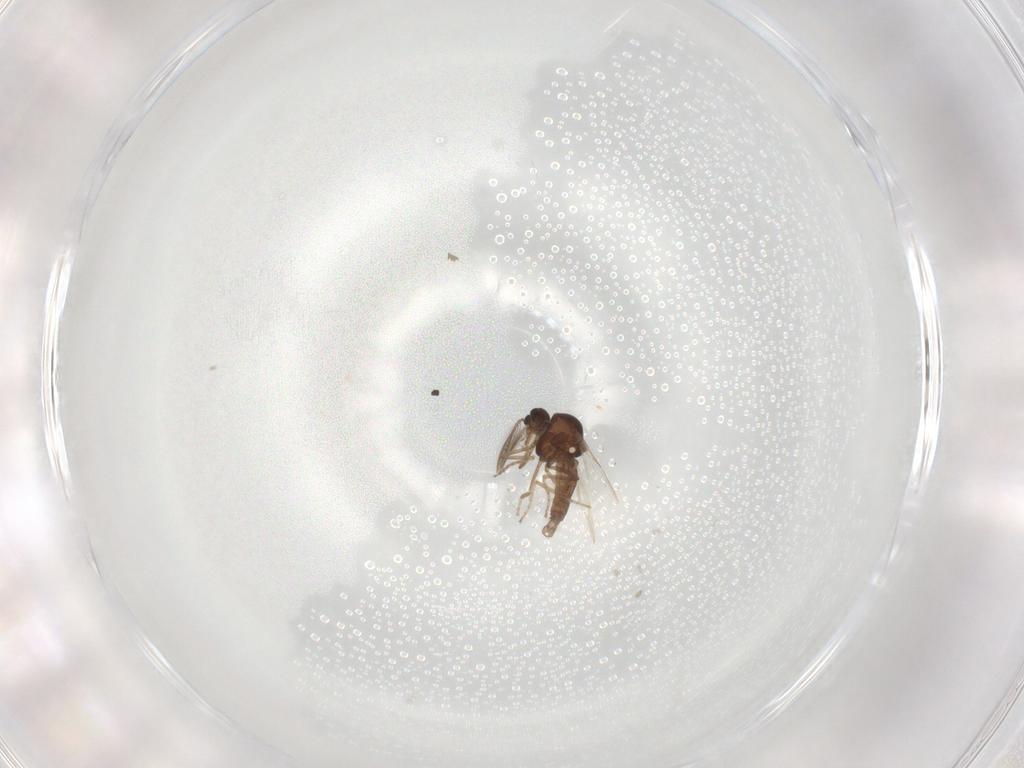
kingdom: Animalia
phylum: Arthropoda
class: Insecta
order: Diptera
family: Ceratopogonidae
